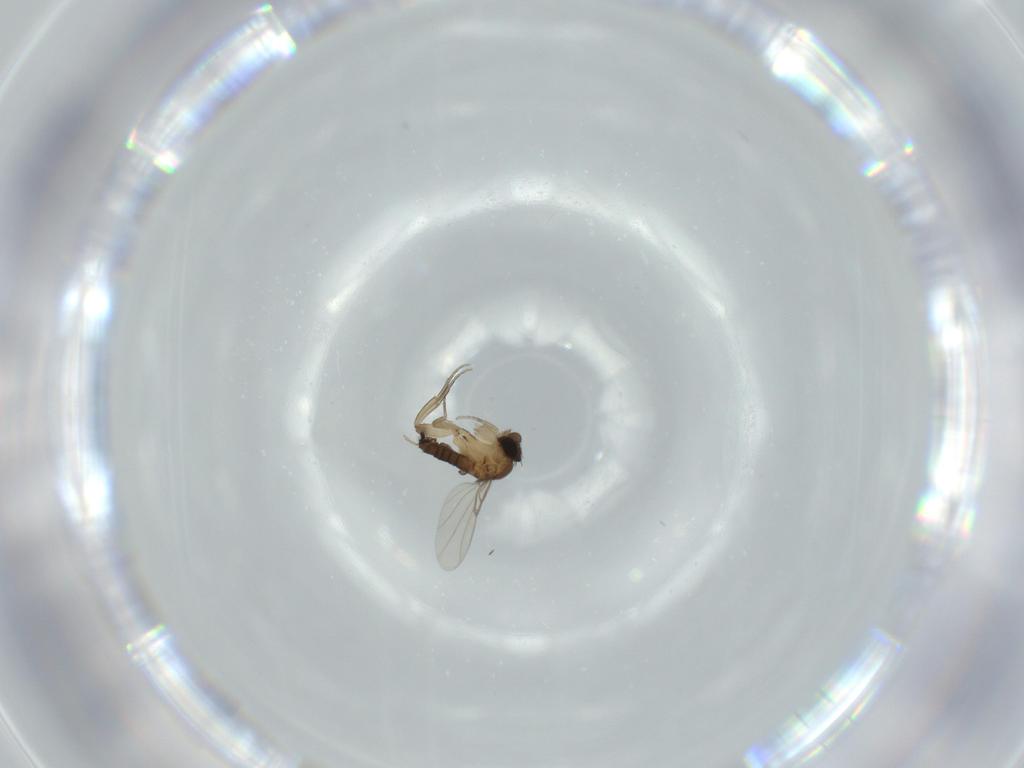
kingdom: Animalia
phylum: Arthropoda
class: Insecta
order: Diptera
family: Phoridae
